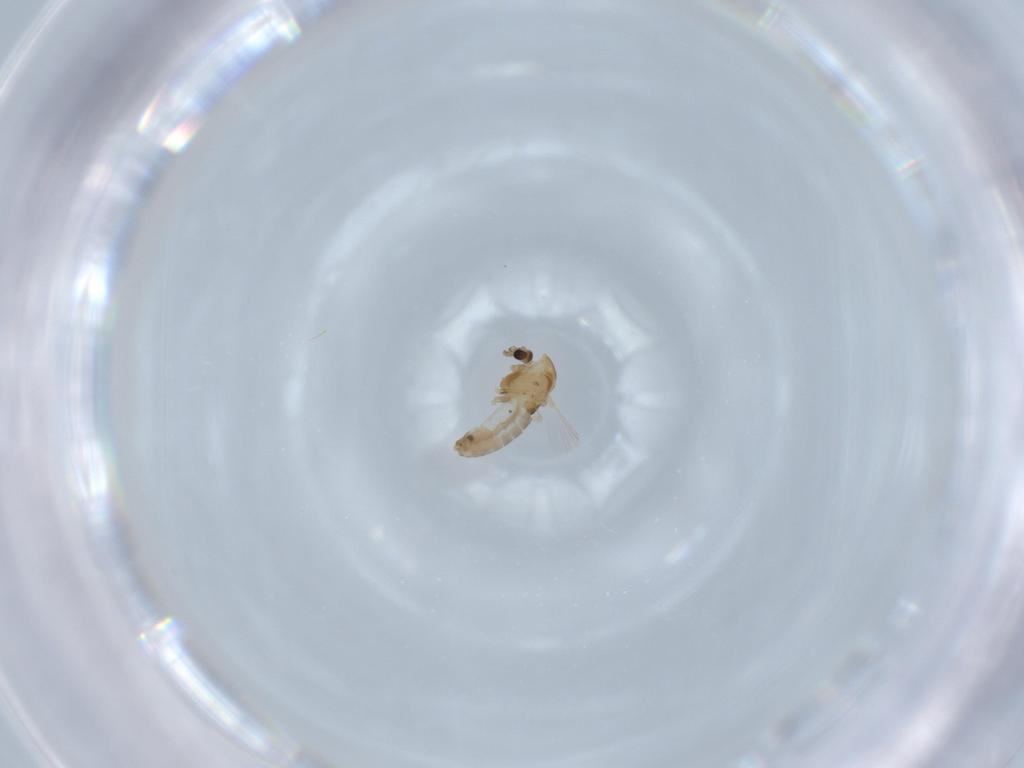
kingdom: Animalia
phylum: Arthropoda
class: Insecta
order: Diptera
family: Chironomidae
